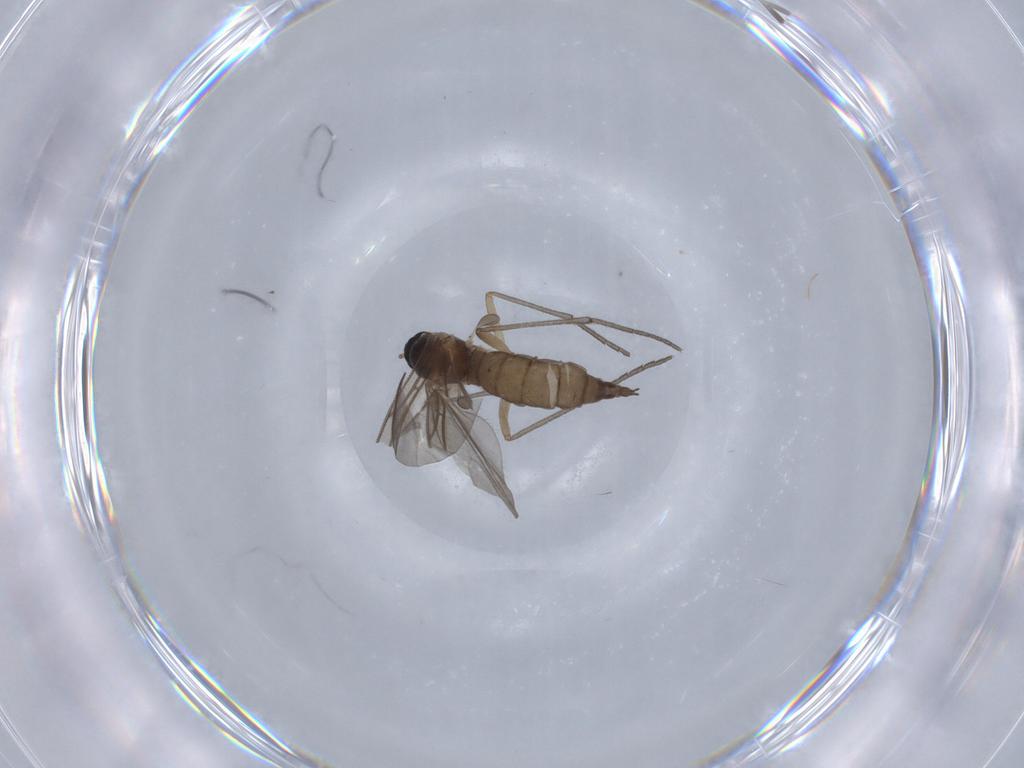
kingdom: Animalia
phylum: Arthropoda
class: Insecta
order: Diptera
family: Sciaridae
